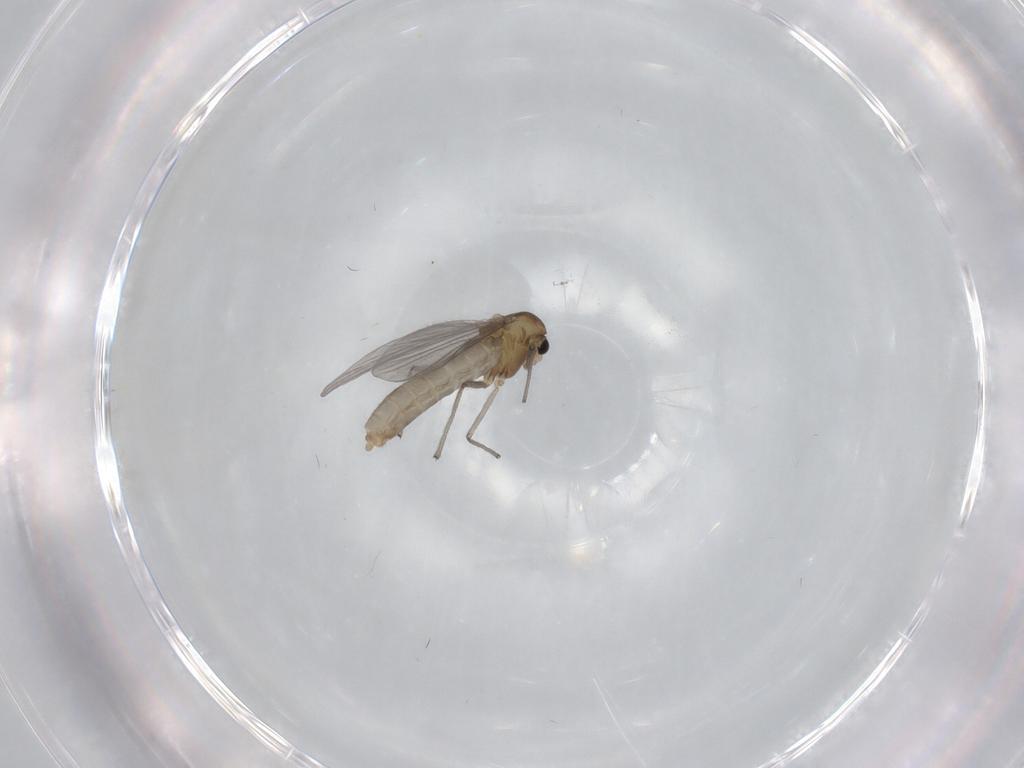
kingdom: Animalia
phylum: Arthropoda
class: Insecta
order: Diptera
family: Chironomidae
